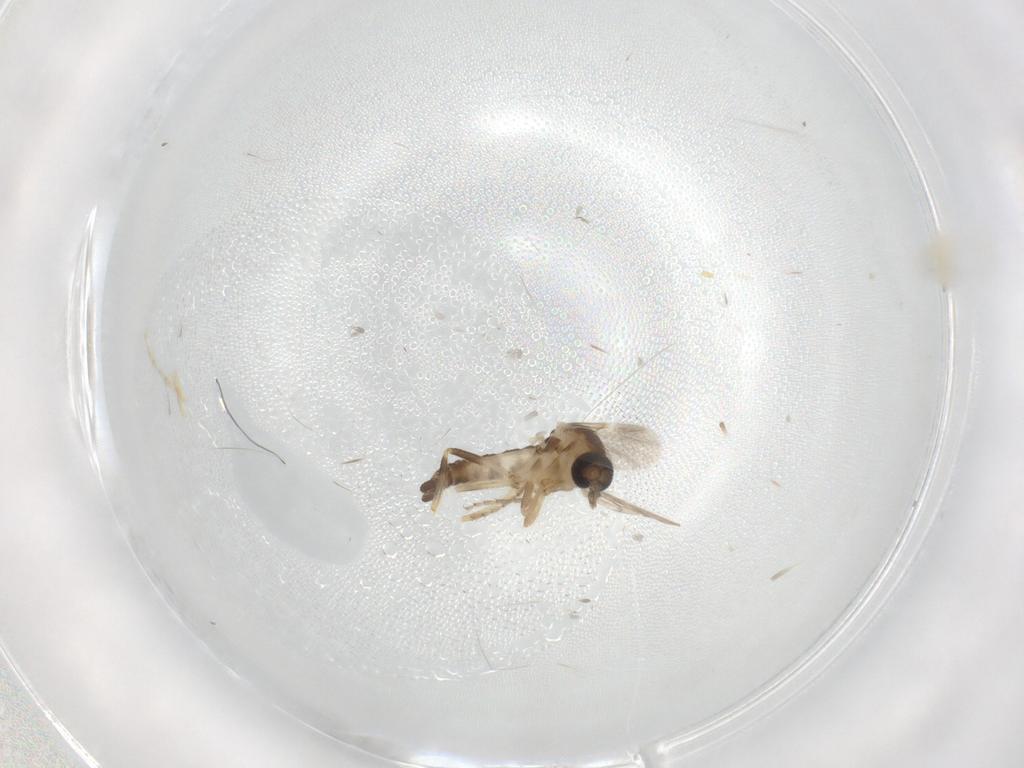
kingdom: Animalia
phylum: Arthropoda
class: Insecta
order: Diptera
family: Ceratopogonidae
